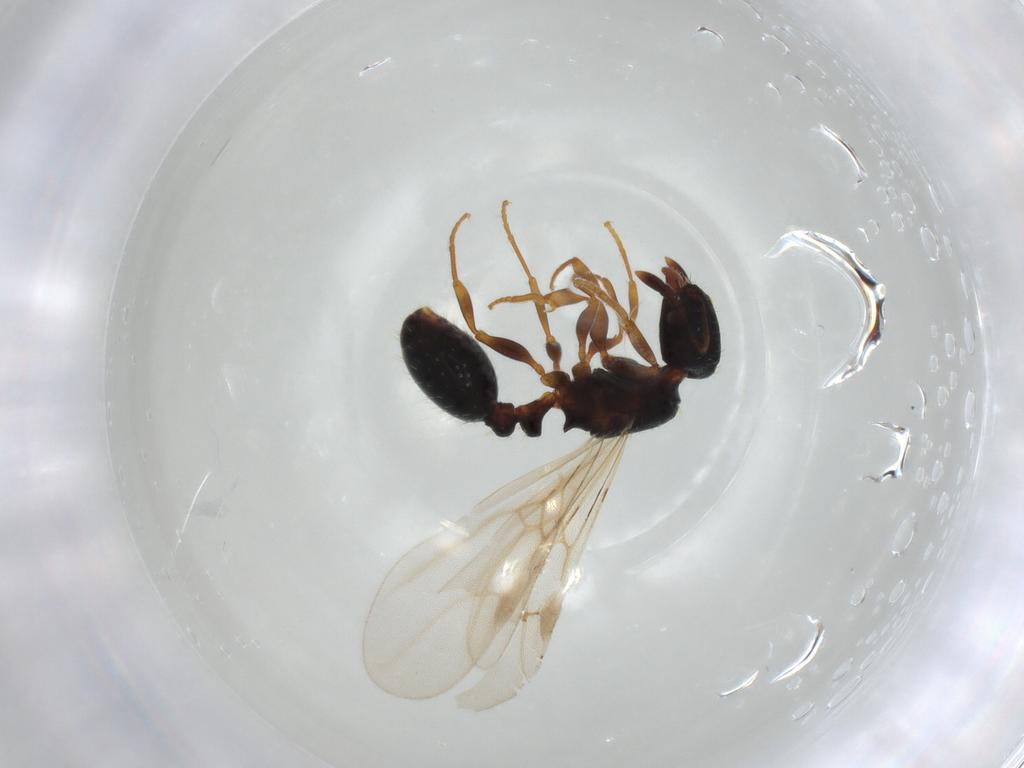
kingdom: Animalia
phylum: Arthropoda
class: Insecta
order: Hymenoptera
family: Formicidae
